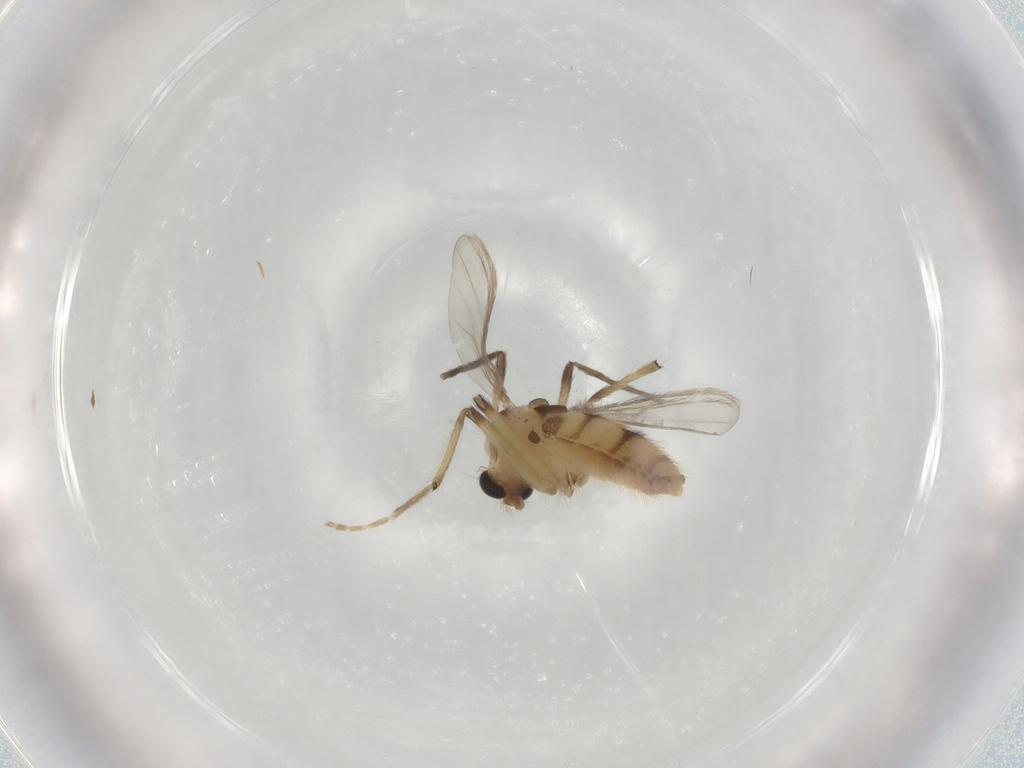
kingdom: Animalia
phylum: Arthropoda
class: Insecta
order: Diptera
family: Chironomidae
